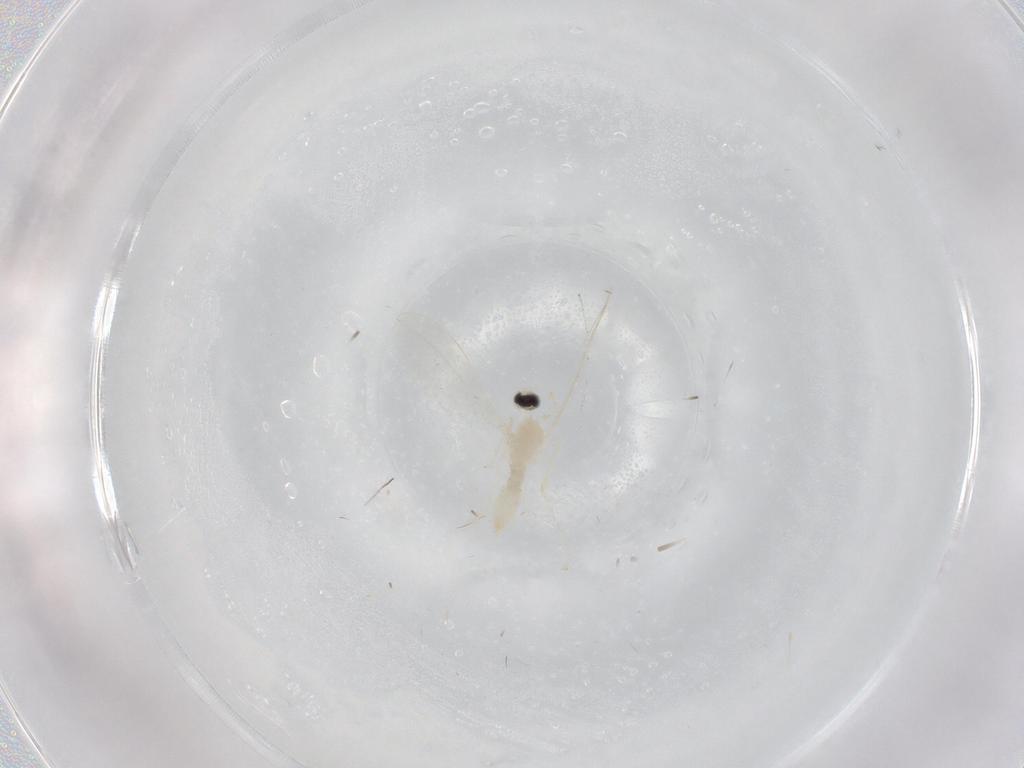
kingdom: Animalia
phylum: Arthropoda
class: Insecta
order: Diptera
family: Cecidomyiidae
